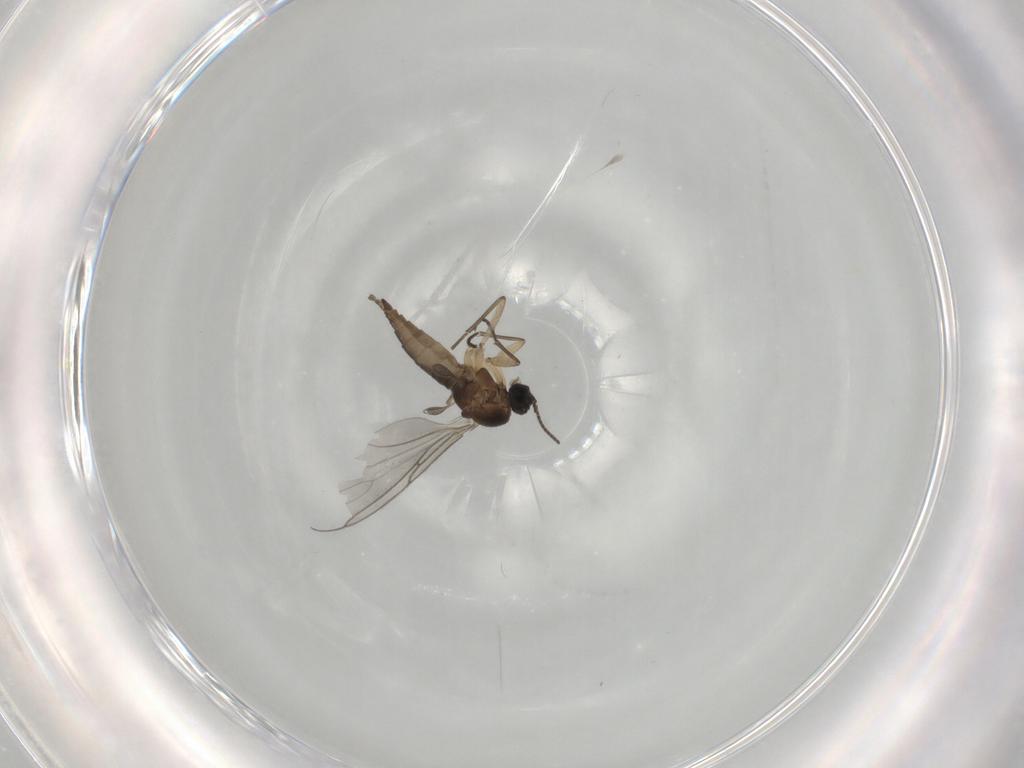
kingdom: Animalia
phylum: Arthropoda
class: Insecta
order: Diptera
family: Sciaridae
